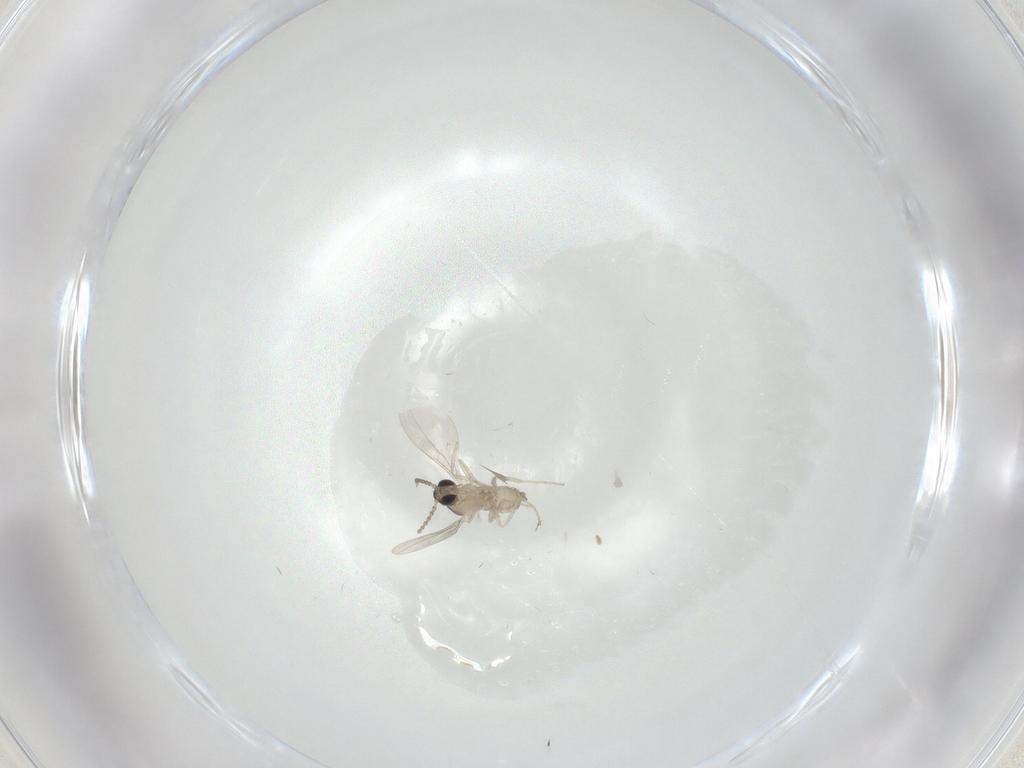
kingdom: Animalia
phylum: Arthropoda
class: Insecta
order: Diptera
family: Cecidomyiidae
